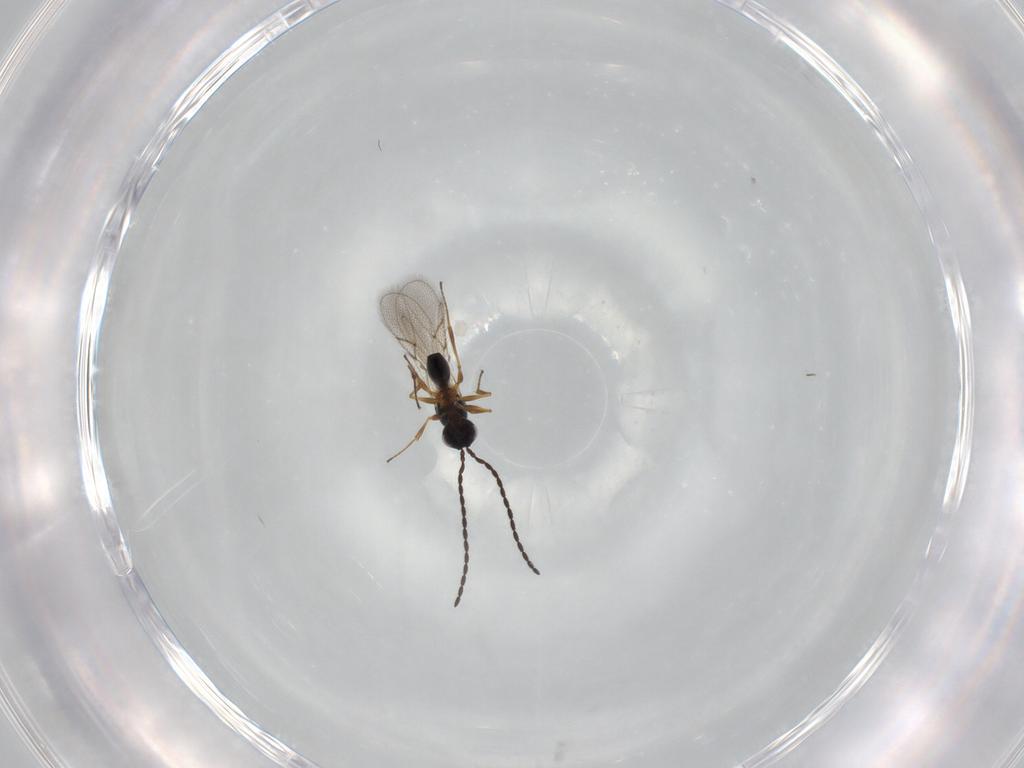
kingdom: Animalia
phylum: Arthropoda
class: Insecta
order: Hymenoptera
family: Figitidae
